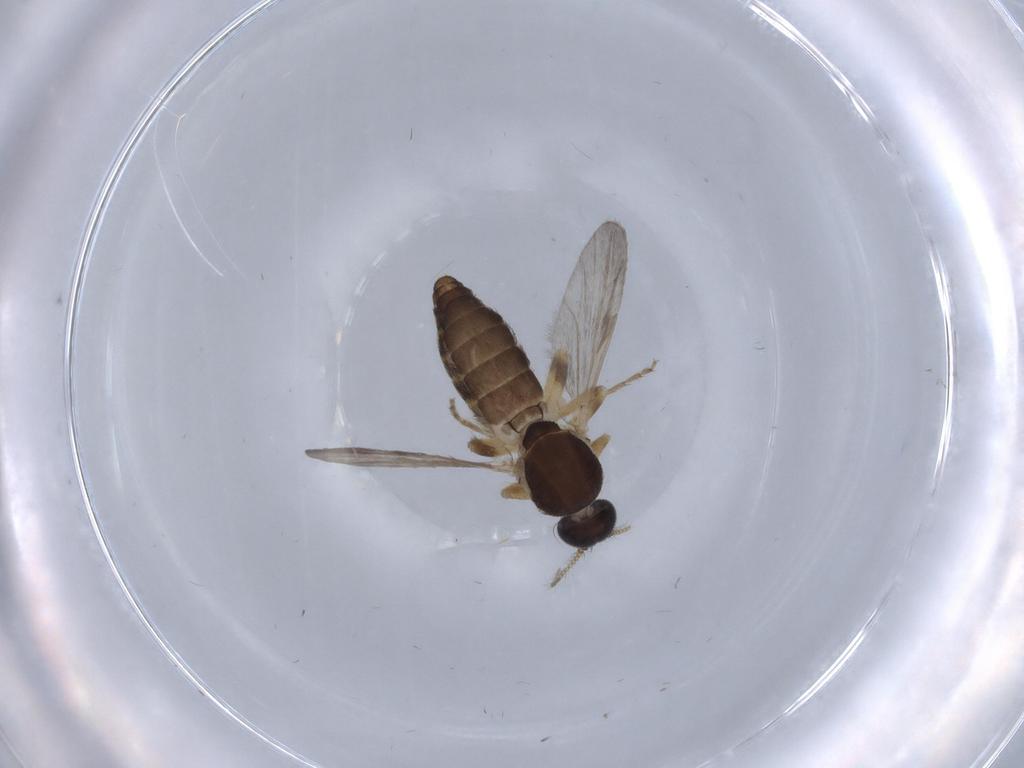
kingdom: Animalia
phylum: Arthropoda
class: Insecta
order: Diptera
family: Ceratopogonidae
